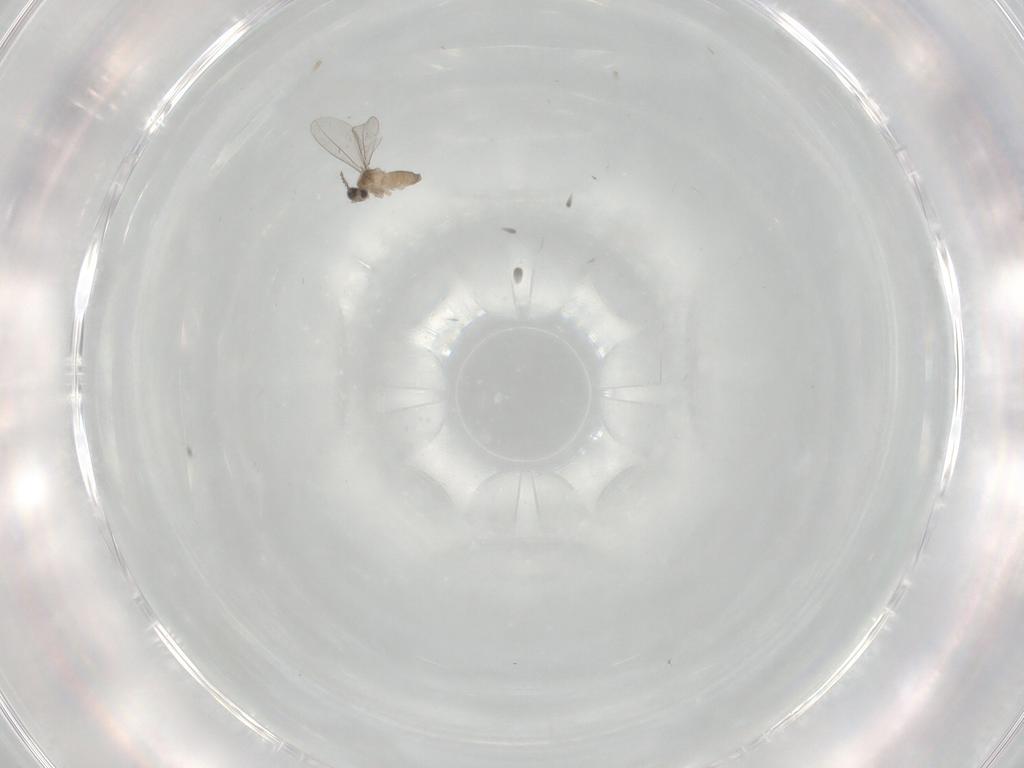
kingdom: Animalia
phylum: Arthropoda
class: Insecta
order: Diptera
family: Cecidomyiidae
